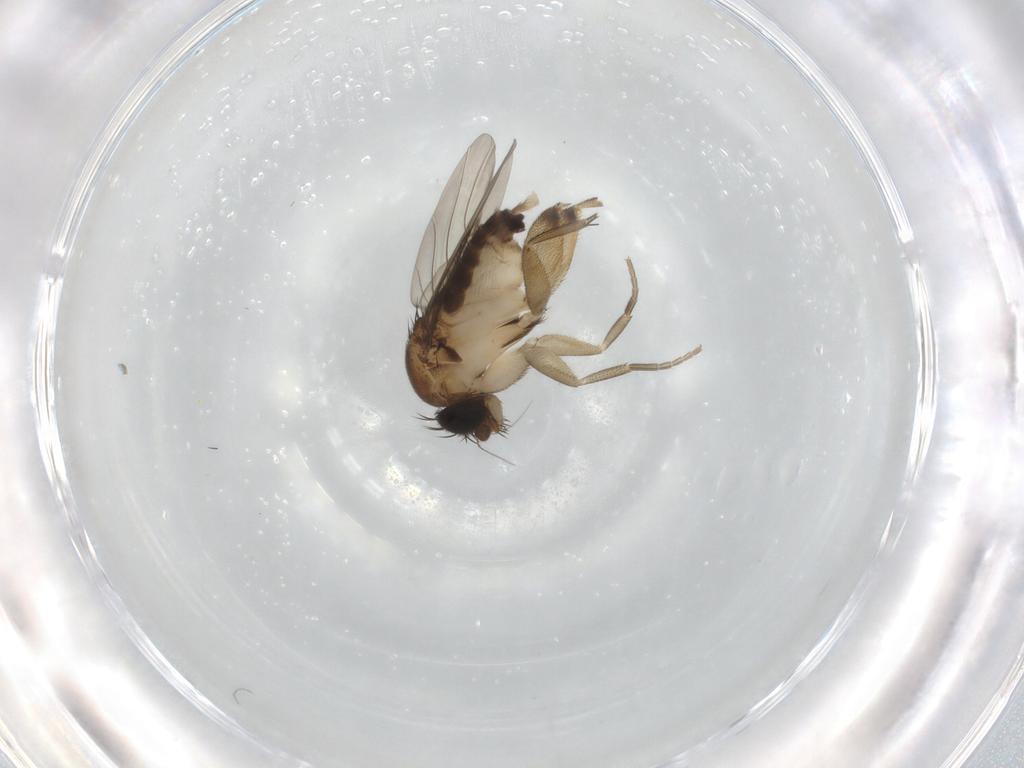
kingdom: Animalia
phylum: Arthropoda
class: Insecta
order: Diptera
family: Phoridae
